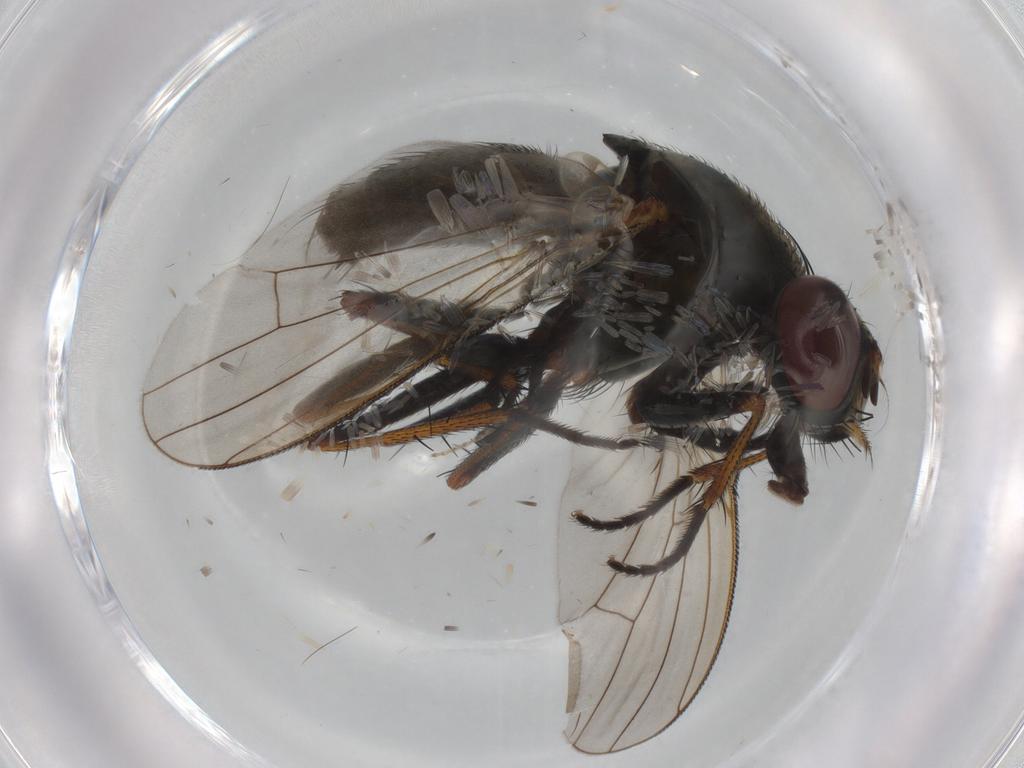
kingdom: Animalia
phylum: Arthropoda
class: Insecta
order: Diptera
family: Muscidae
